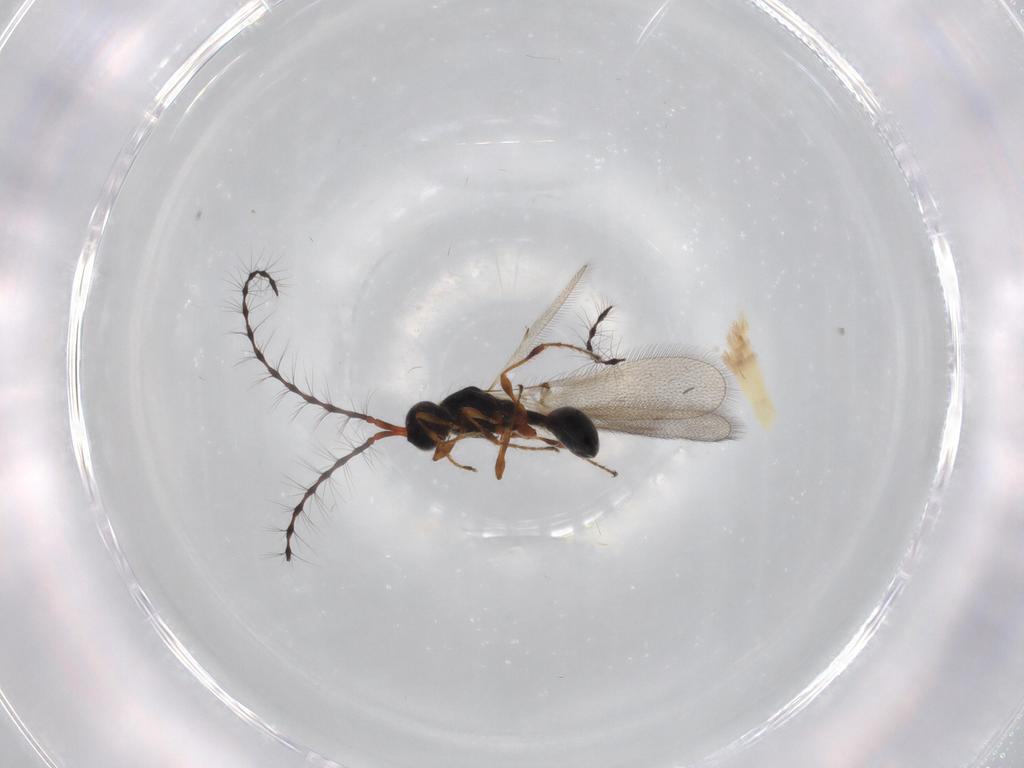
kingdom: Animalia
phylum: Arthropoda
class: Insecta
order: Hymenoptera
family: Diapriidae
